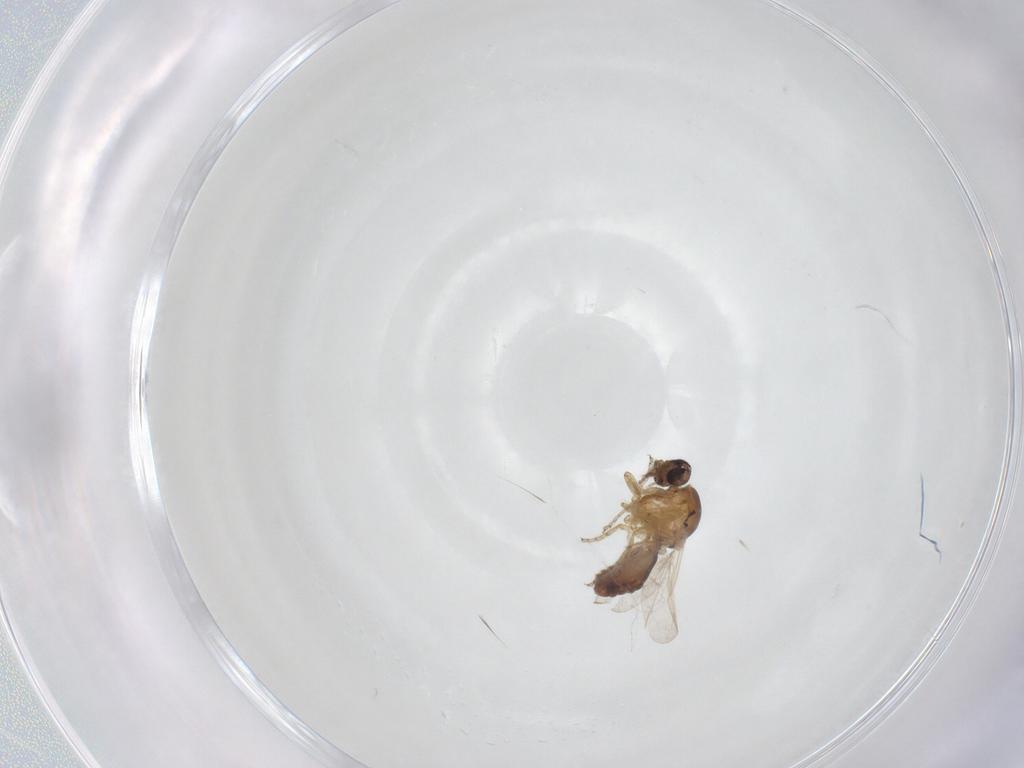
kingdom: Animalia
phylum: Arthropoda
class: Insecta
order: Diptera
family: Ceratopogonidae
